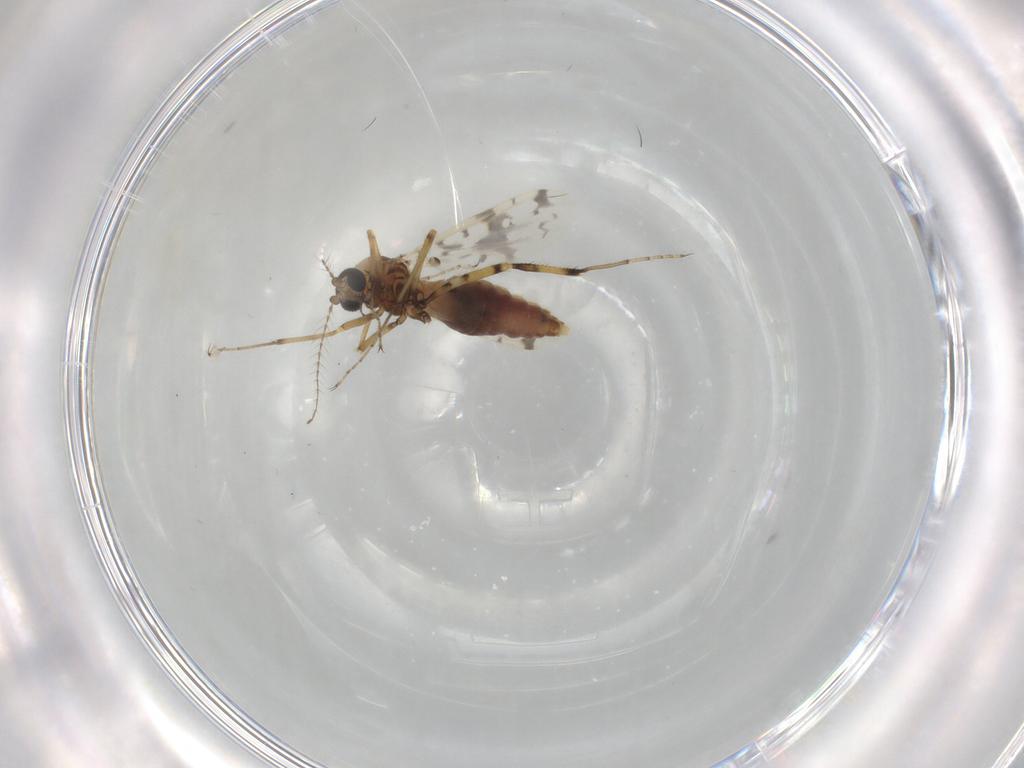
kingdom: Animalia
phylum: Arthropoda
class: Insecta
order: Diptera
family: Ceratopogonidae
